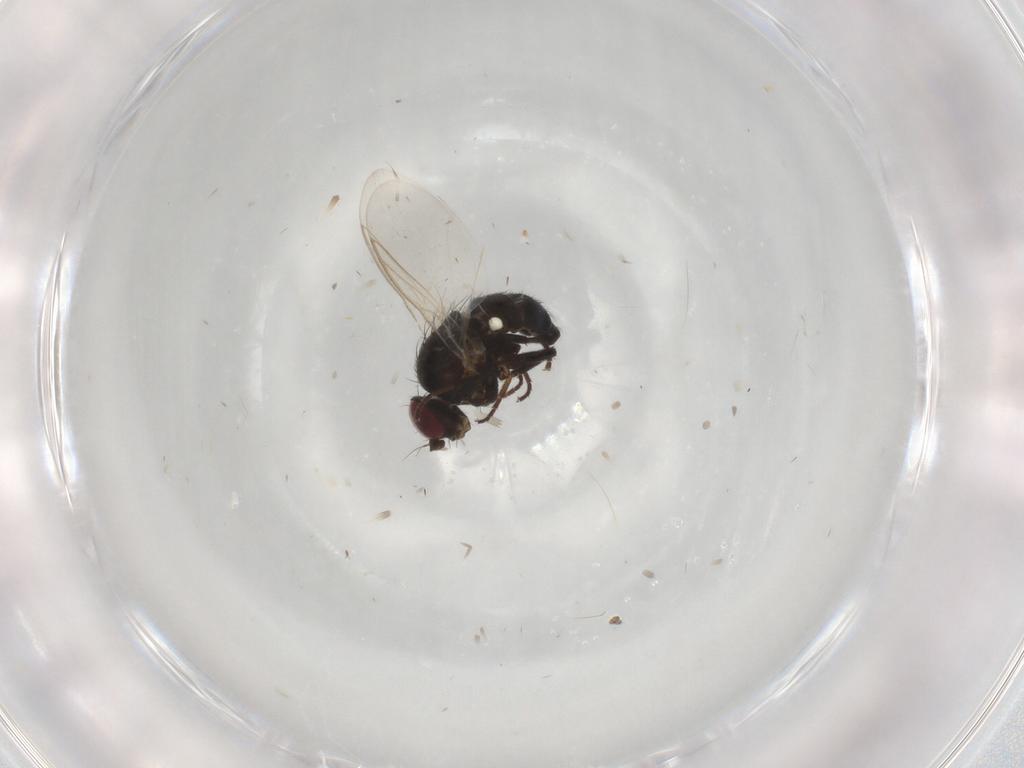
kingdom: Animalia
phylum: Arthropoda
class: Insecta
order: Diptera
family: Agromyzidae
